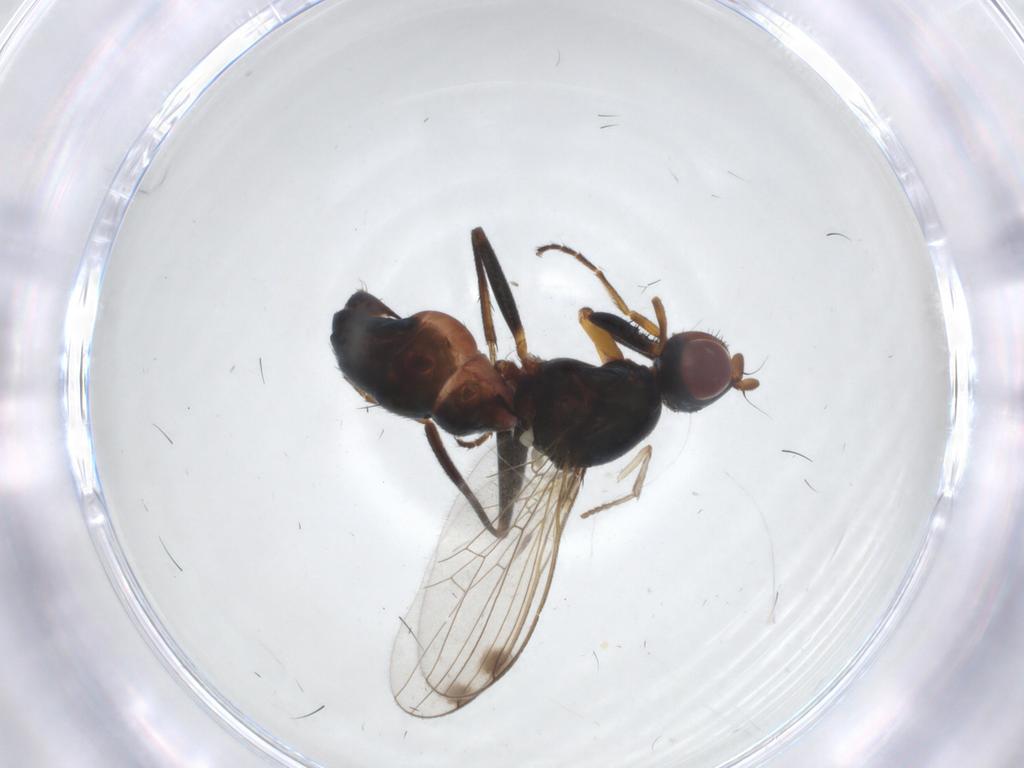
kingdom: Animalia
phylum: Arthropoda
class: Insecta
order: Diptera
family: Sepsidae
